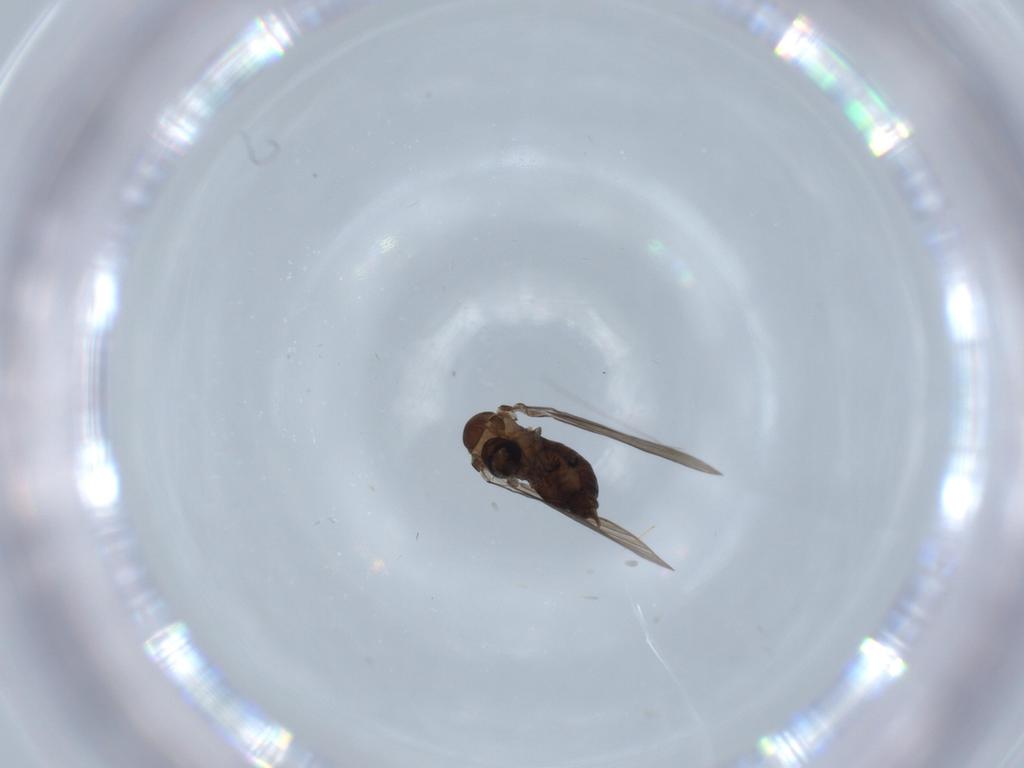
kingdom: Animalia
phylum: Arthropoda
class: Insecta
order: Diptera
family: Psychodidae
